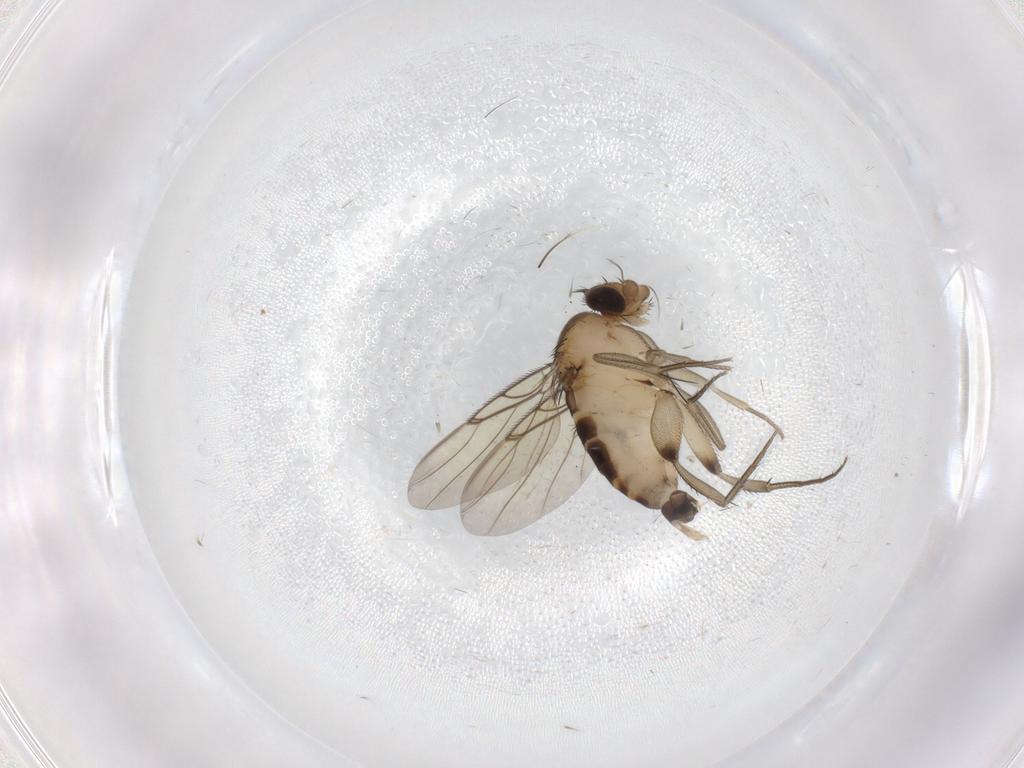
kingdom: Animalia
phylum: Arthropoda
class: Insecta
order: Diptera
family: Phoridae
